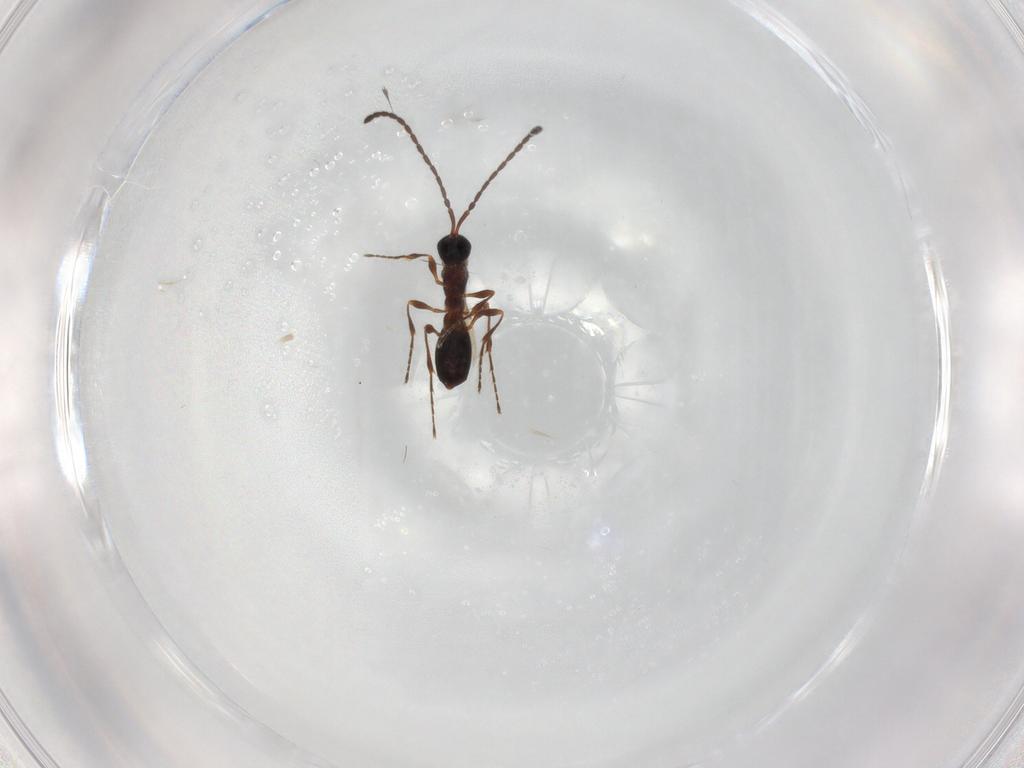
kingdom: Animalia
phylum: Arthropoda
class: Insecta
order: Hymenoptera
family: Diapriidae
